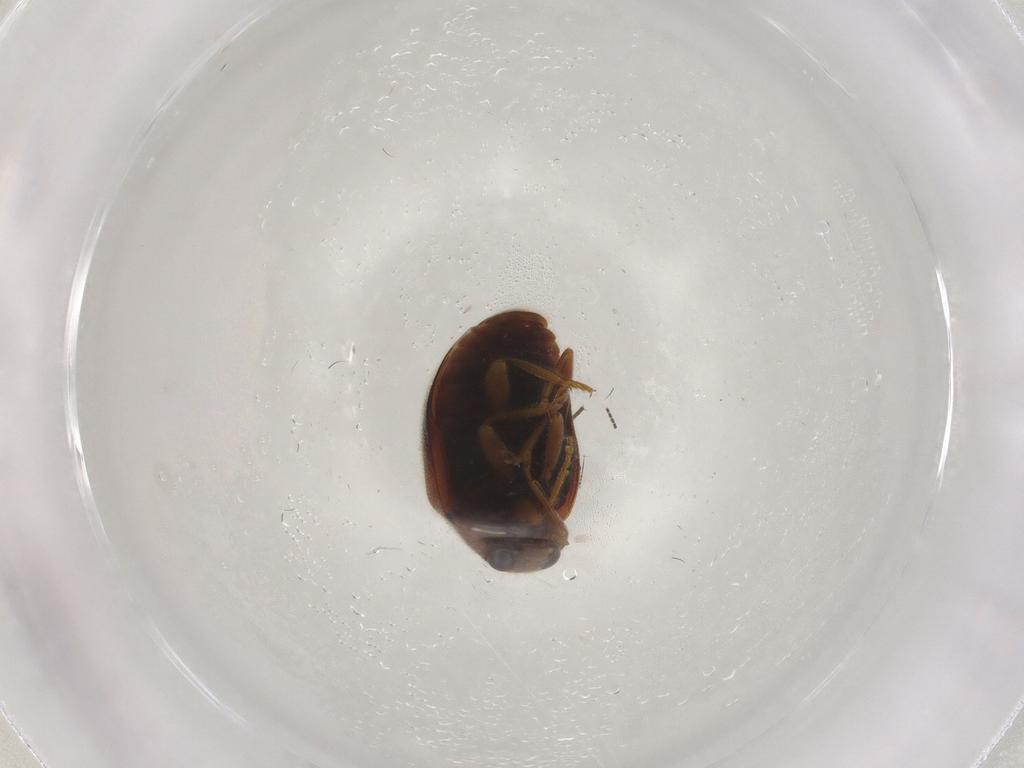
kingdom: Animalia
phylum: Arthropoda
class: Insecta
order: Coleoptera
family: Coccinellidae
